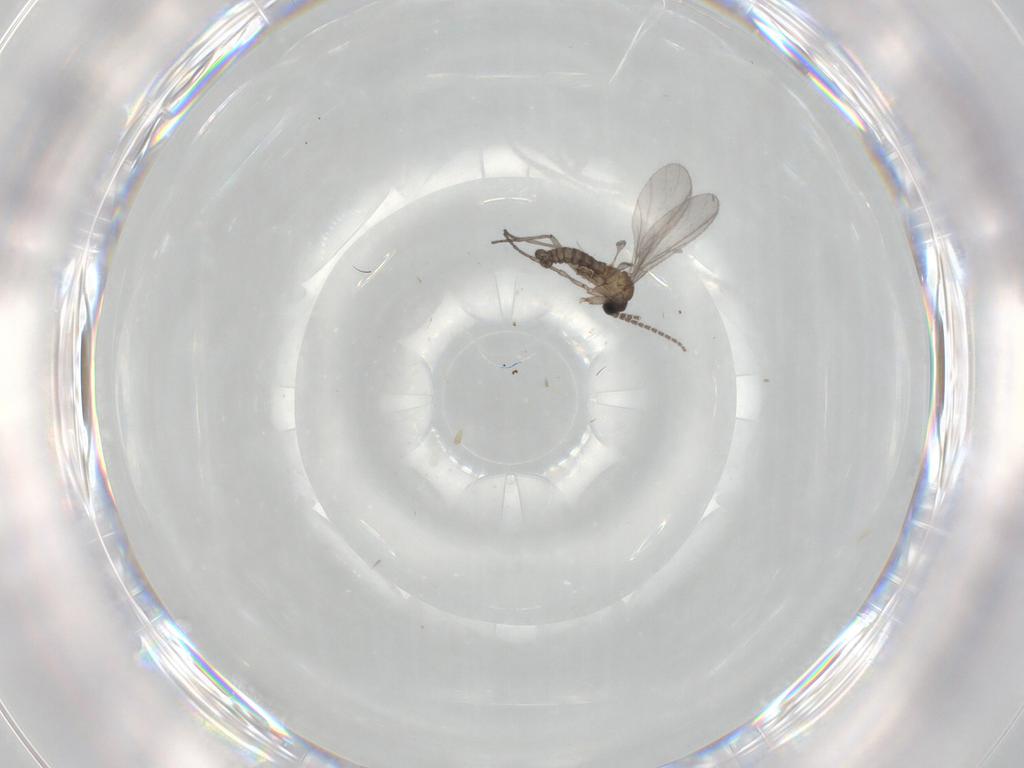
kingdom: Animalia
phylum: Arthropoda
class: Insecta
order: Diptera
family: Sciaridae
